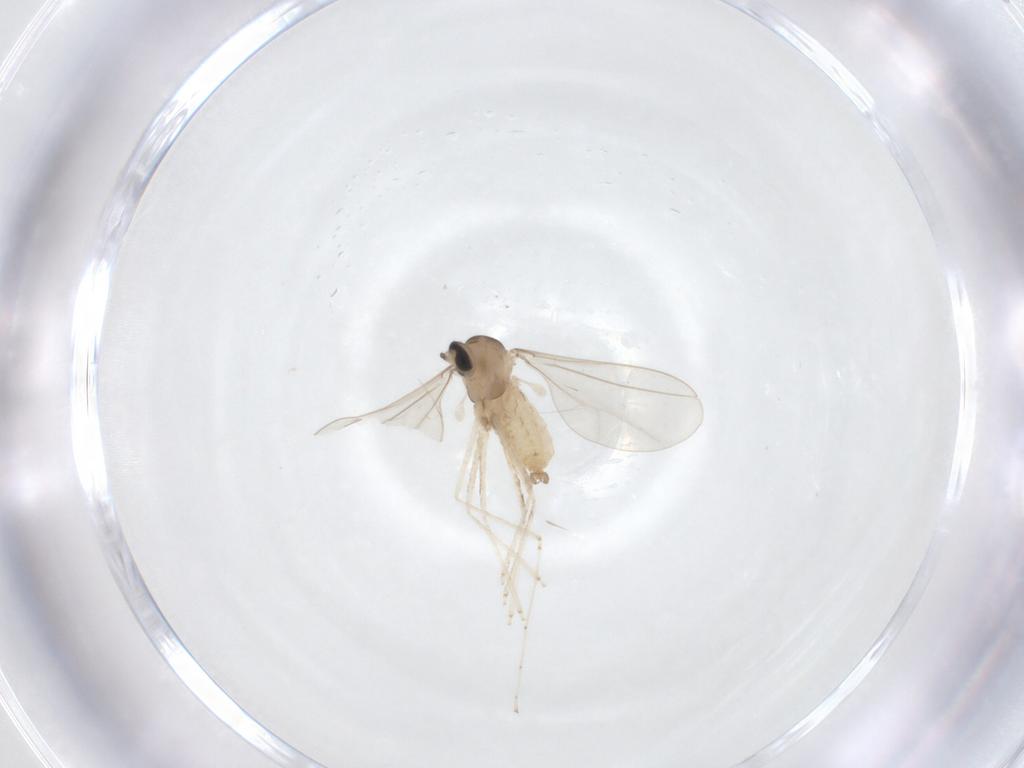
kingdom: Animalia
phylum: Arthropoda
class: Insecta
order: Diptera
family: Cecidomyiidae
